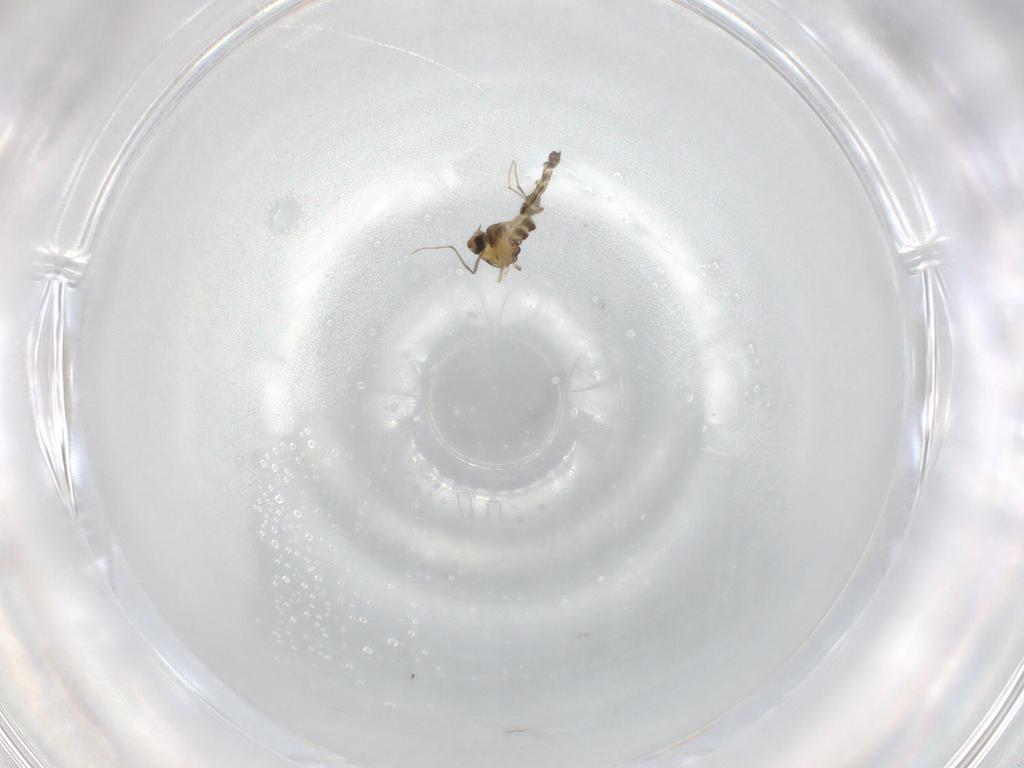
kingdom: Animalia
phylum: Arthropoda
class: Insecta
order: Diptera
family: Chironomidae
